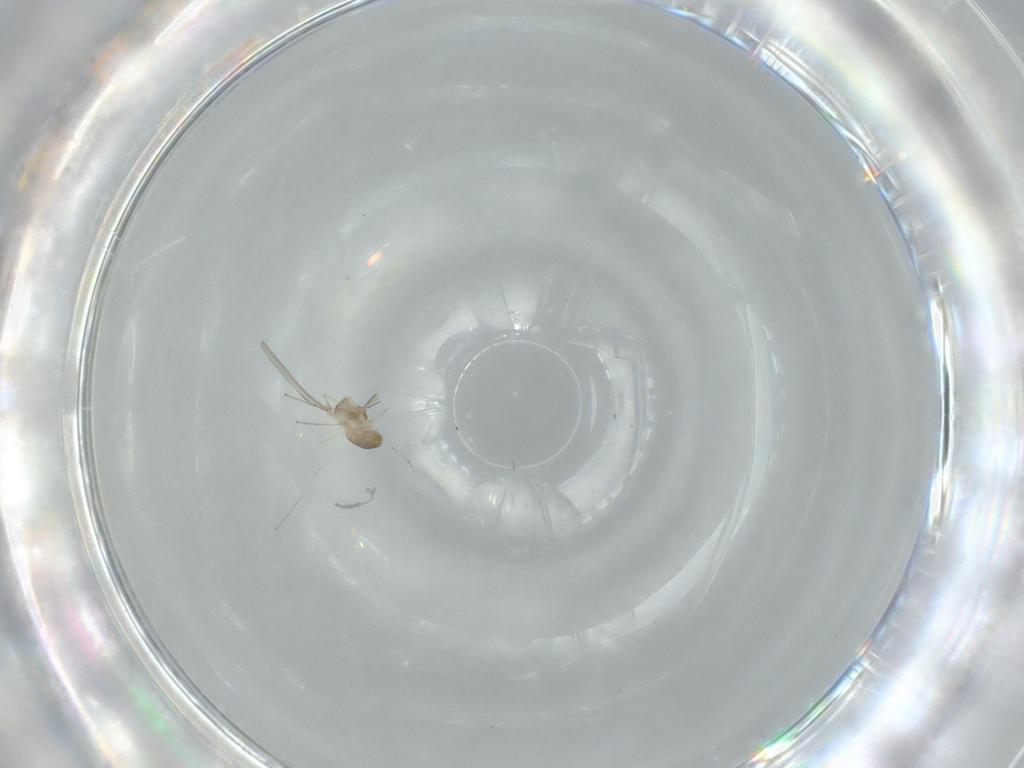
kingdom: Animalia
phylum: Arthropoda
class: Insecta
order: Diptera
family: Cecidomyiidae
